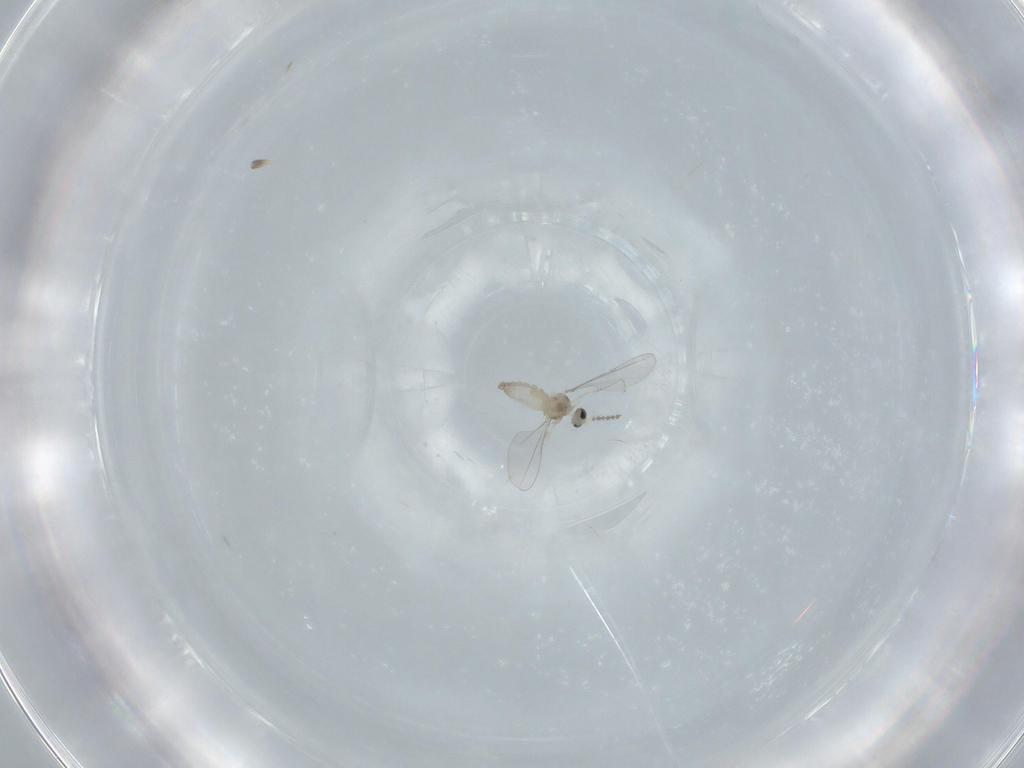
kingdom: Animalia
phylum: Arthropoda
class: Insecta
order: Diptera
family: Cecidomyiidae
